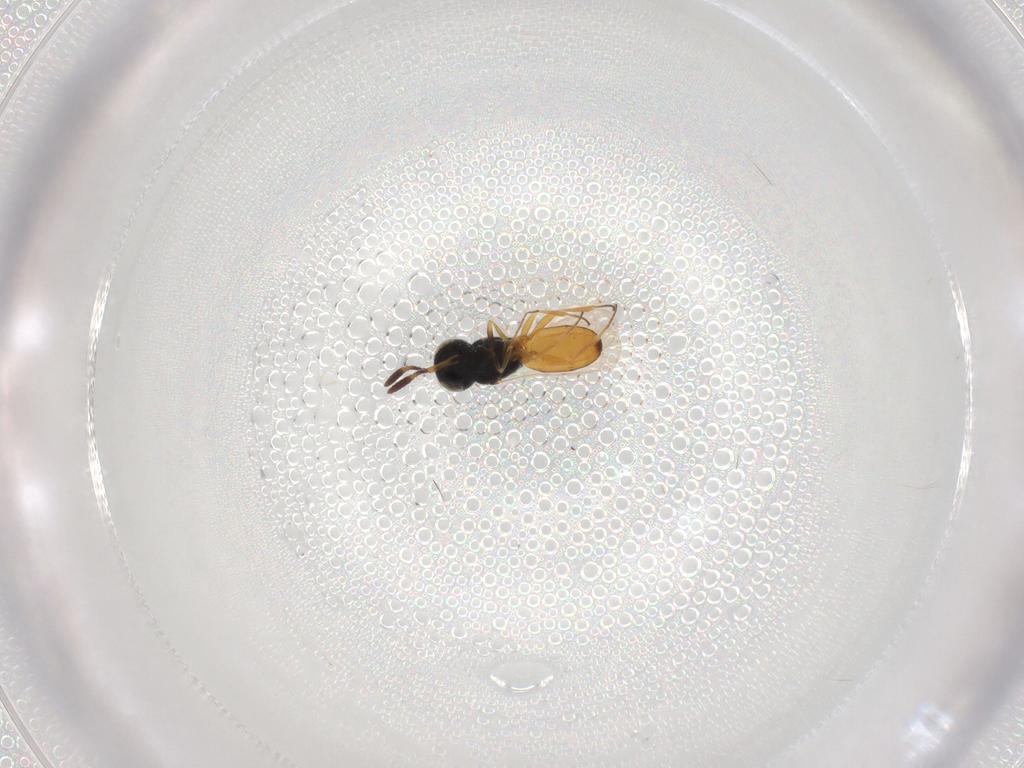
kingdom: Animalia
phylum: Arthropoda
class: Insecta
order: Hymenoptera
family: Scelionidae
